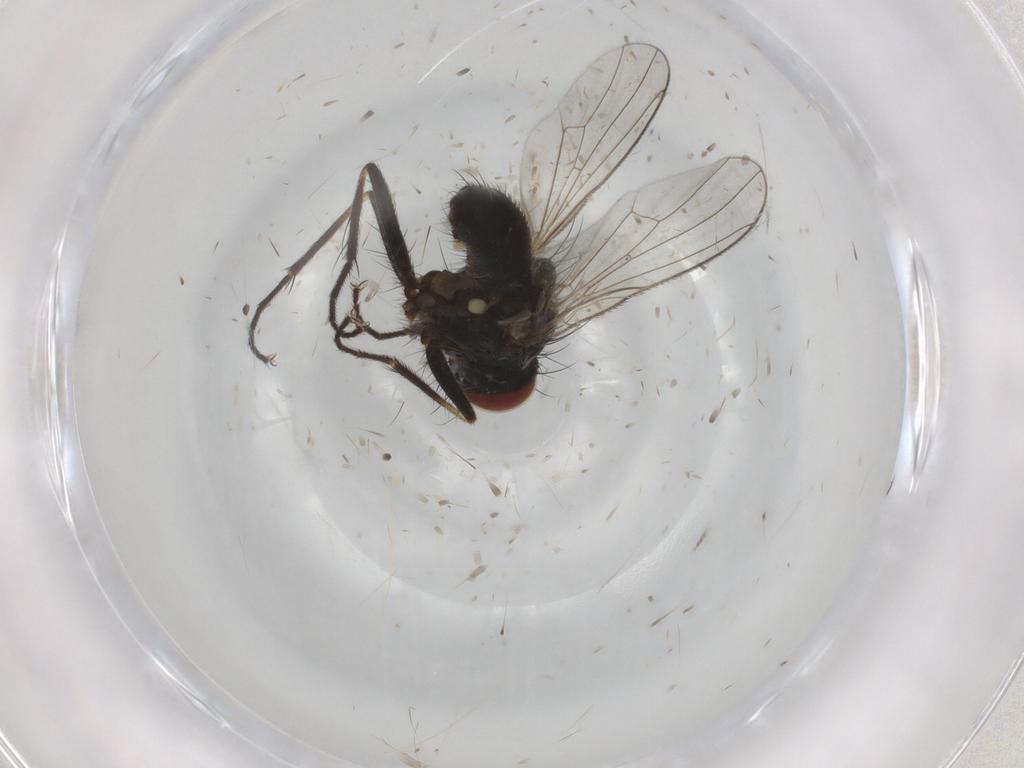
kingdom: Animalia
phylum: Arthropoda
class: Insecta
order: Diptera
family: Muscidae
